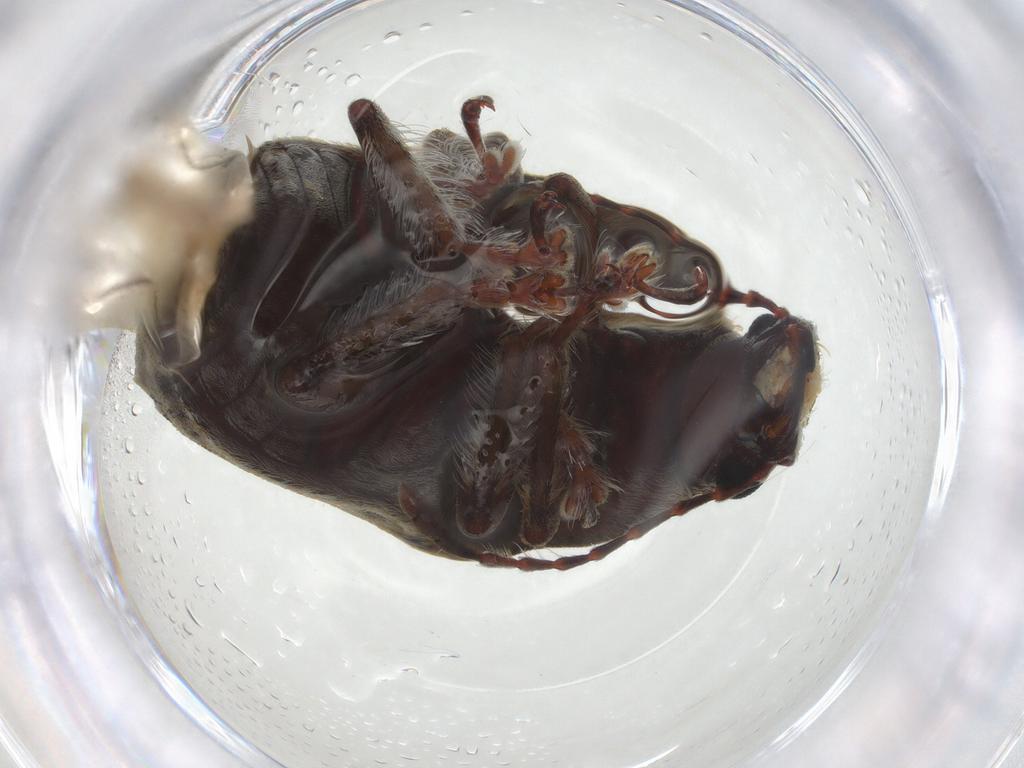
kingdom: Animalia
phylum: Arthropoda
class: Insecta
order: Coleoptera
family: Anthribidae
